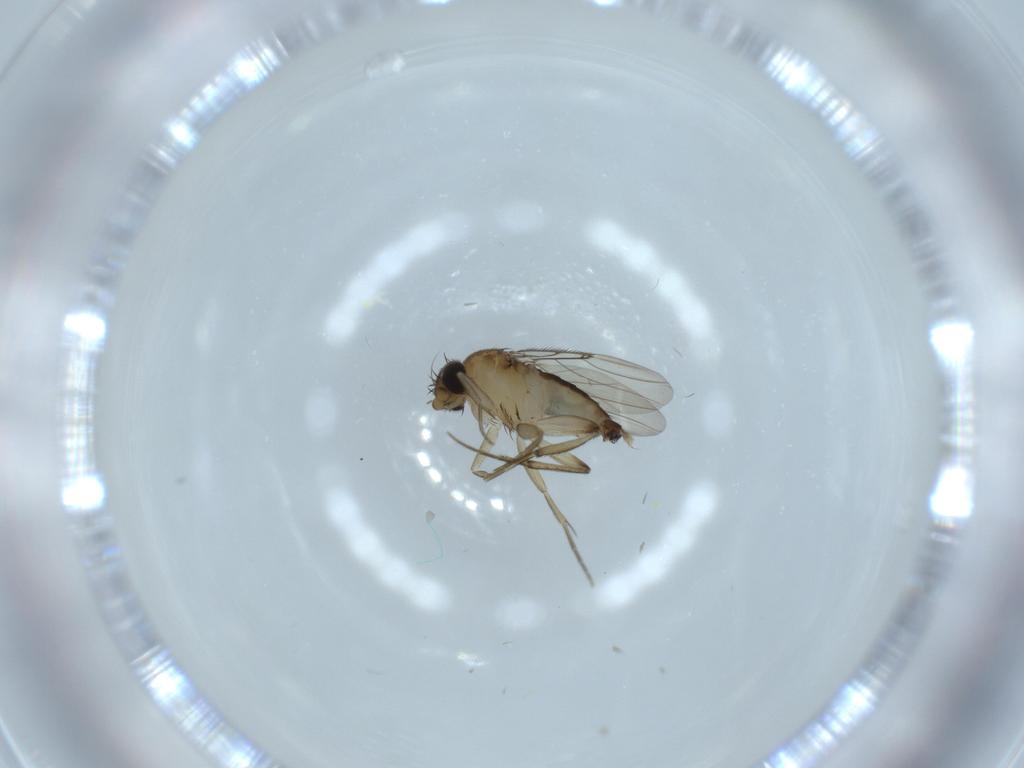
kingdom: Animalia
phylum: Arthropoda
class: Insecta
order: Diptera
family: Phoridae
